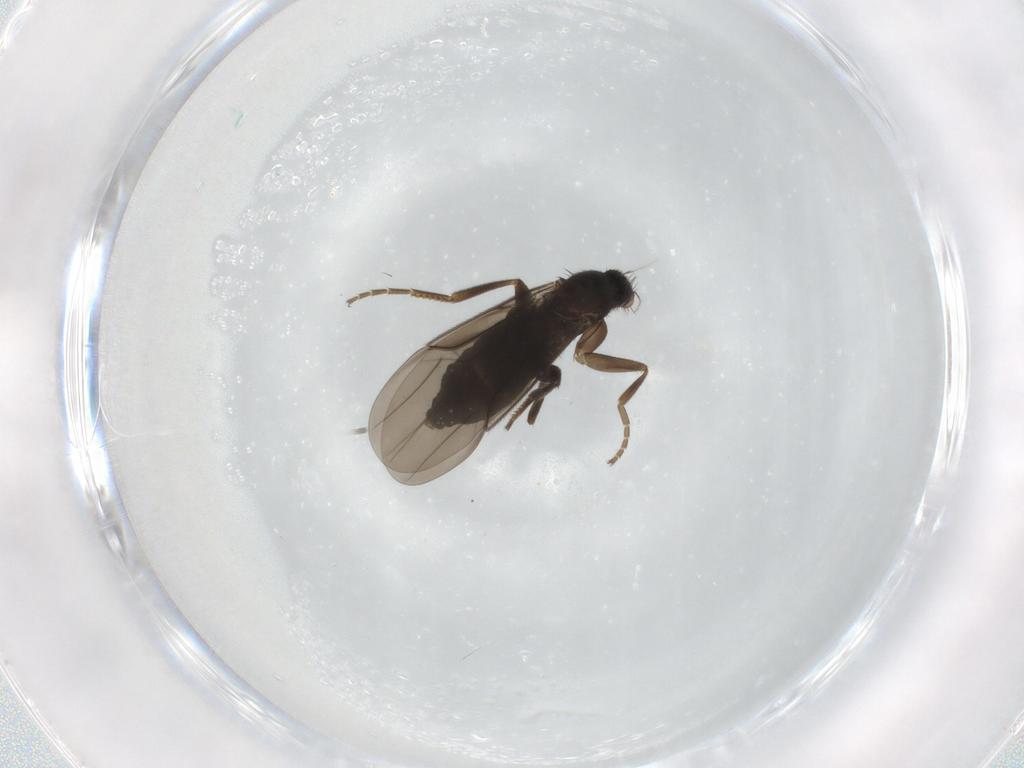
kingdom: Animalia
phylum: Arthropoda
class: Insecta
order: Diptera
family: Phoridae
